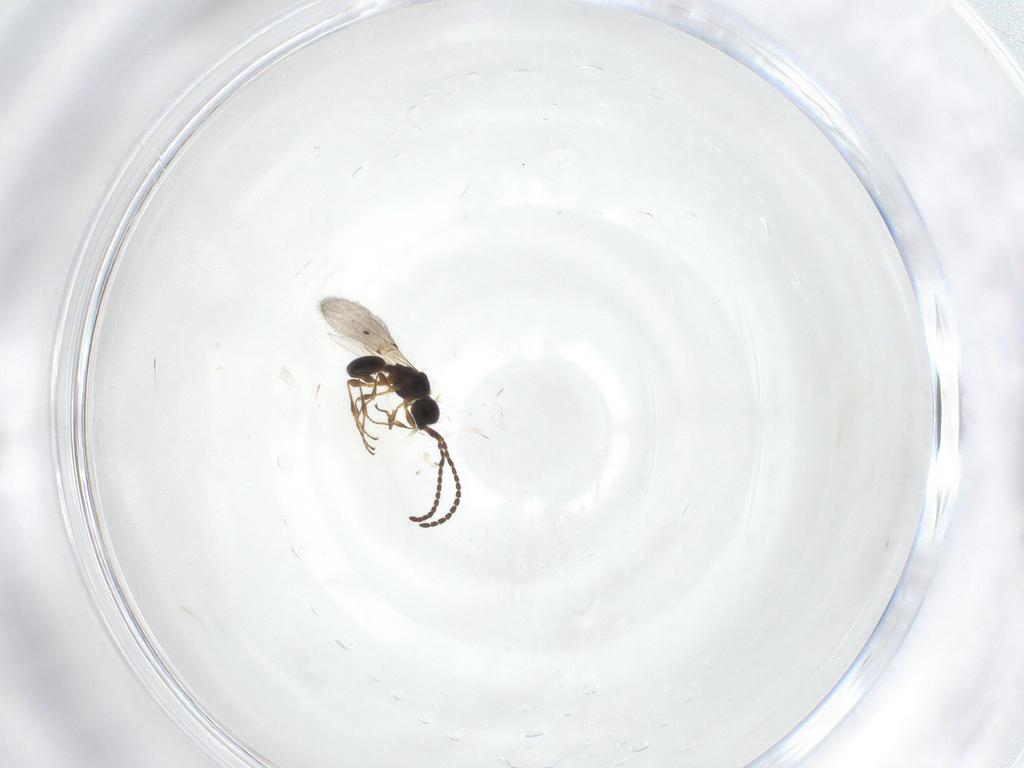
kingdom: Animalia
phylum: Arthropoda
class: Insecta
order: Hymenoptera
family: Diapriidae
